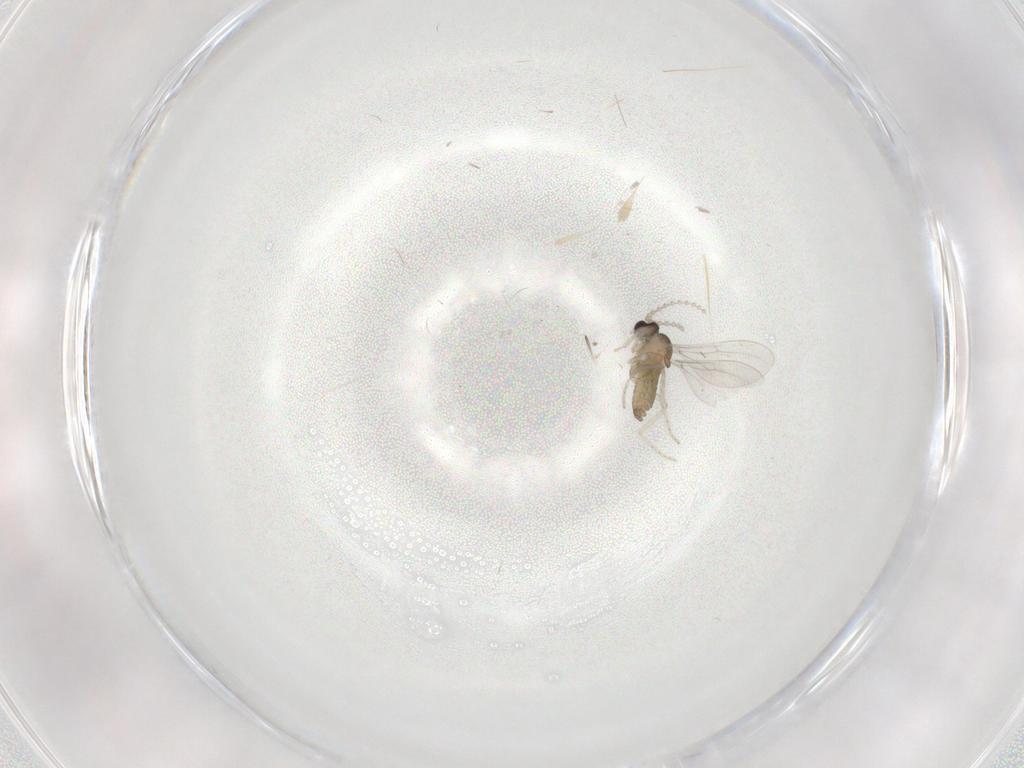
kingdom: Animalia
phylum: Arthropoda
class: Insecta
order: Diptera
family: Cecidomyiidae
